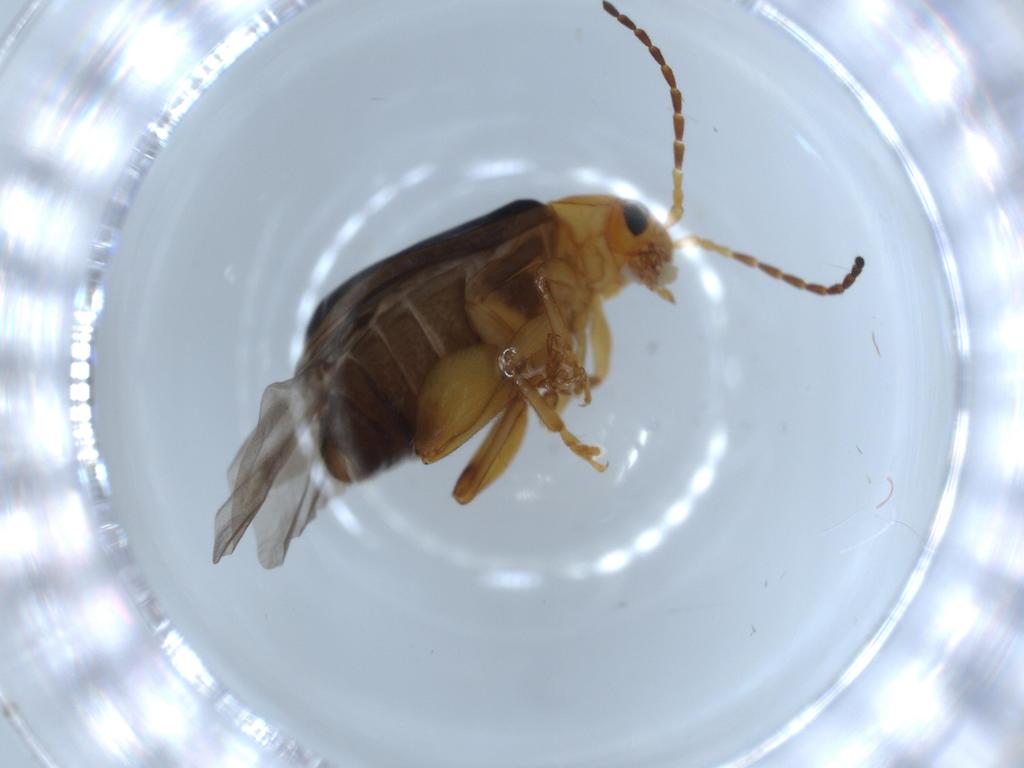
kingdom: Animalia
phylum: Arthropoda
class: Insecta
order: Coleoptera
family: Chrysomelidae
